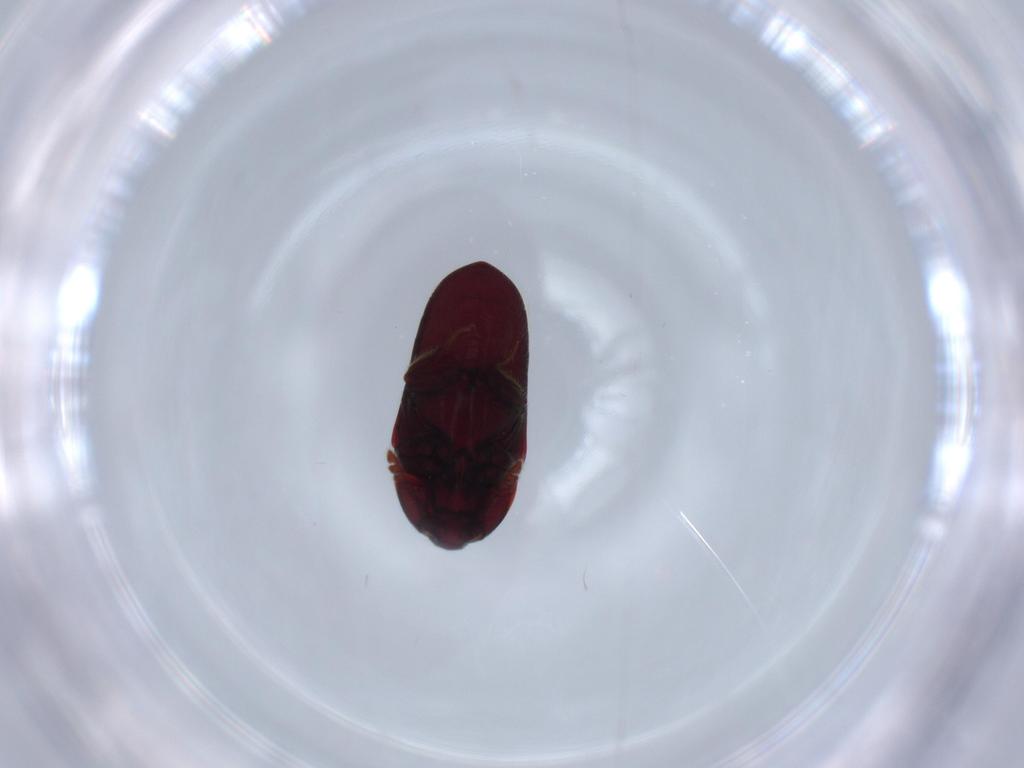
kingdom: Animalia
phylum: Arthropoda
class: Insecta
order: Coleoptera
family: Throscidae
